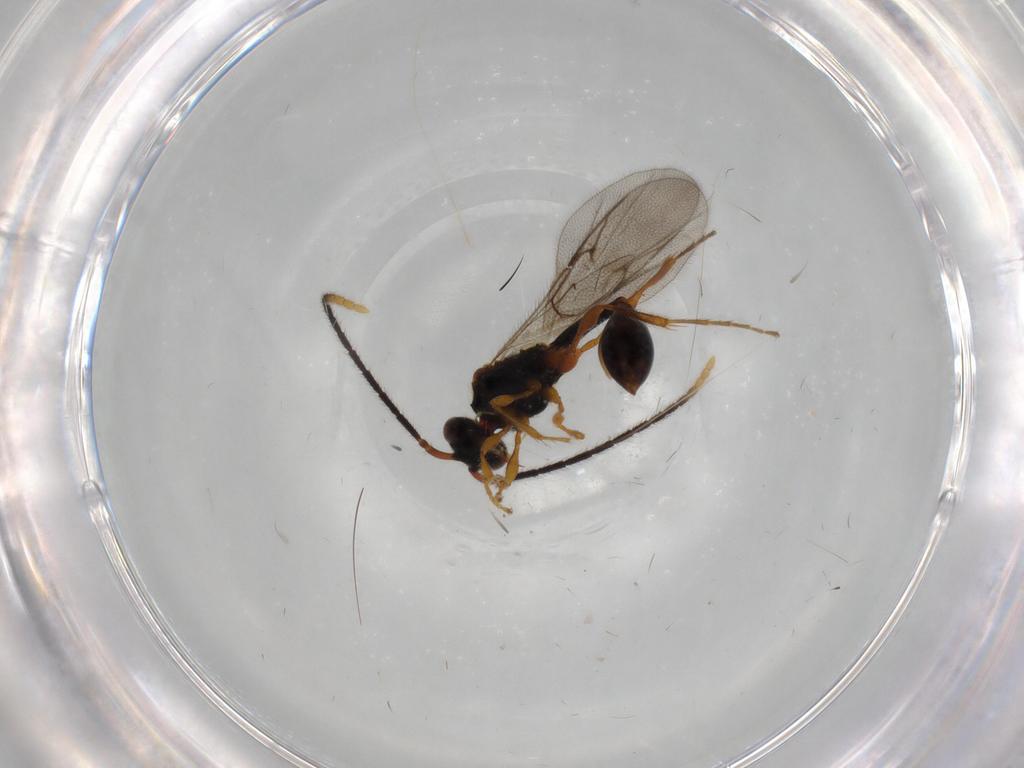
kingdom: Animalia
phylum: Arthropoda
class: Insecta
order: Hymenoptera
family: Diapriidae
